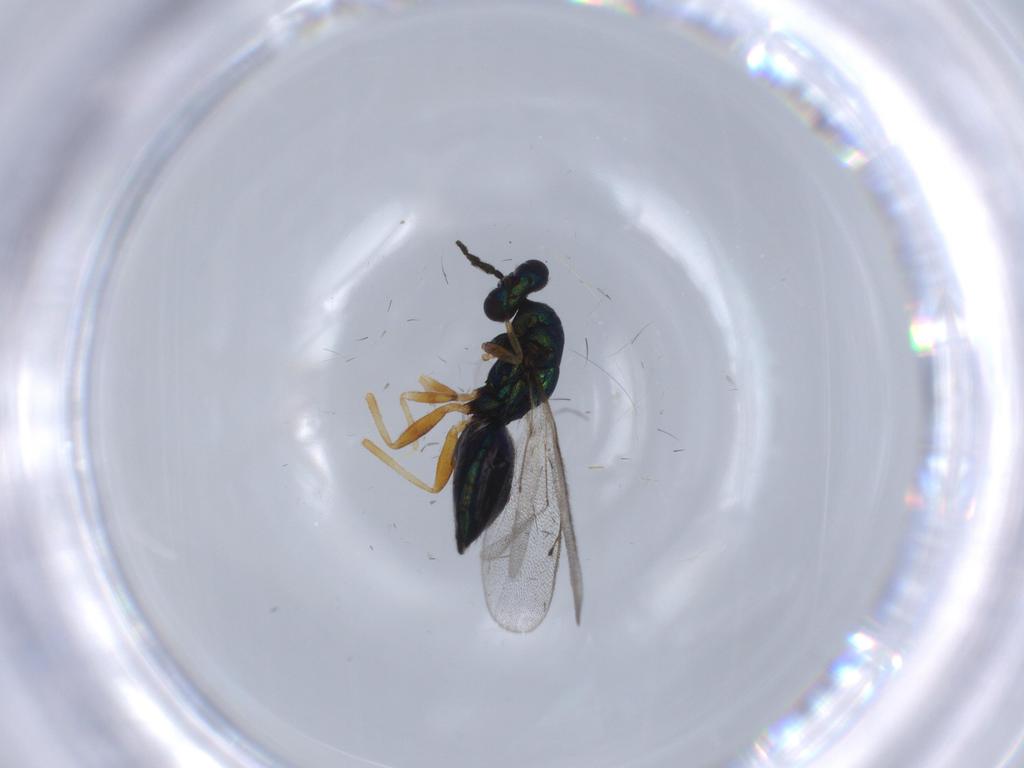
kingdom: Animalia
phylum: Arthropoda
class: Insecta
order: Hymenoptera
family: Eulophidae
